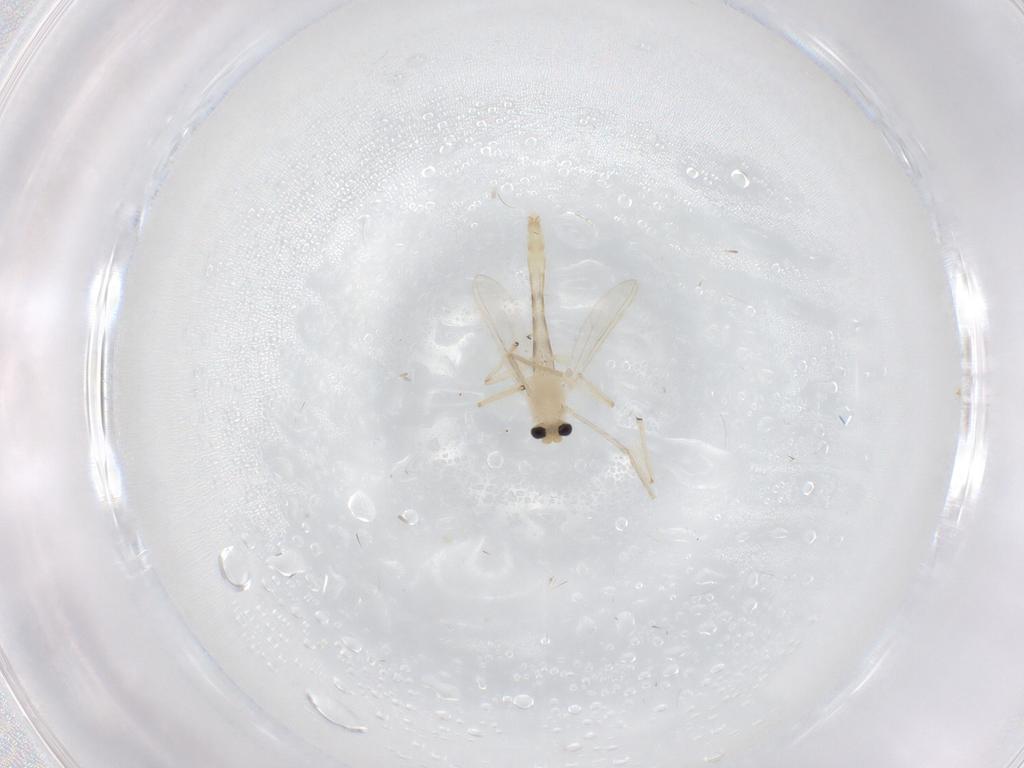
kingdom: Animalia
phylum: Arthropoda
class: Insecta
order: Diptera
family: Chironomidae
